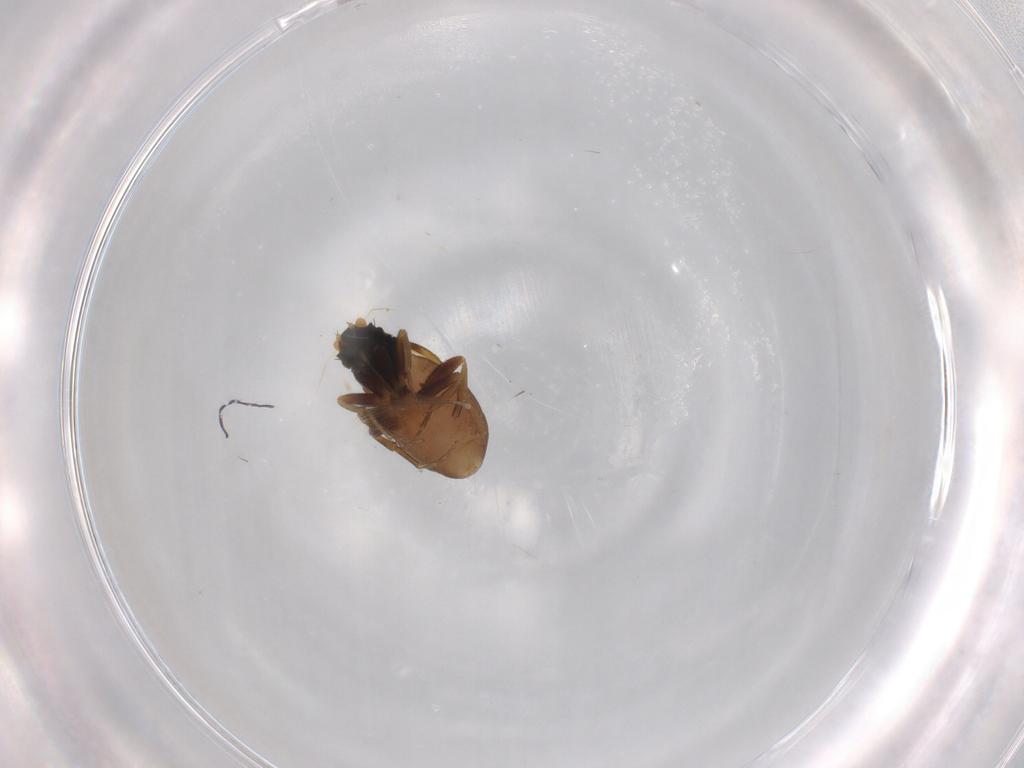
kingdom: Animalia
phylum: Arthropoda
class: Insecta
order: Diptera
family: Phoridae
